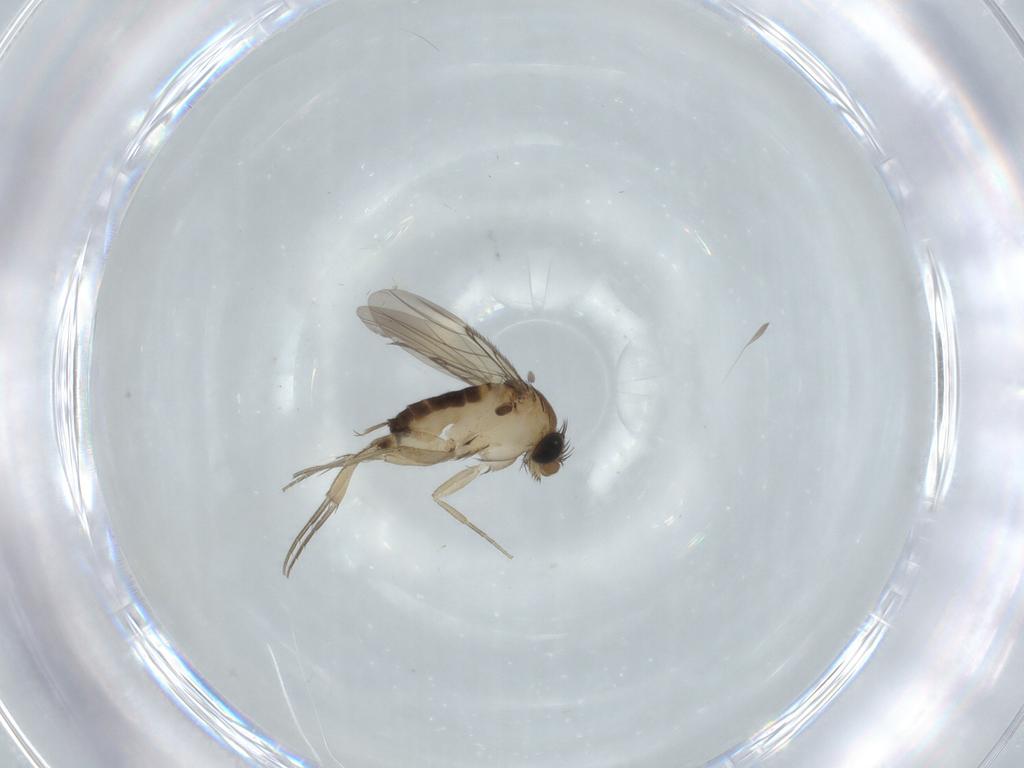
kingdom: Animalia
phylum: Arthropoda
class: Insecta
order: Diptera
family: Phoridae
